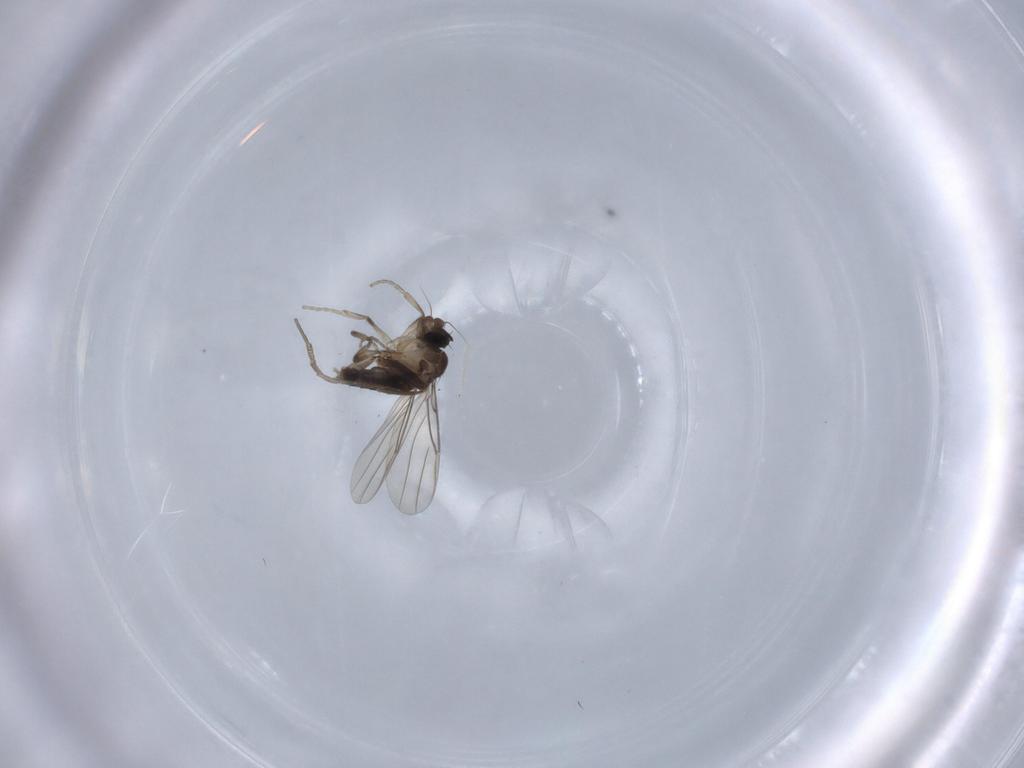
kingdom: Animalia
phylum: Arthropoda
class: Insecta
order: Diptera
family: Phoridae
